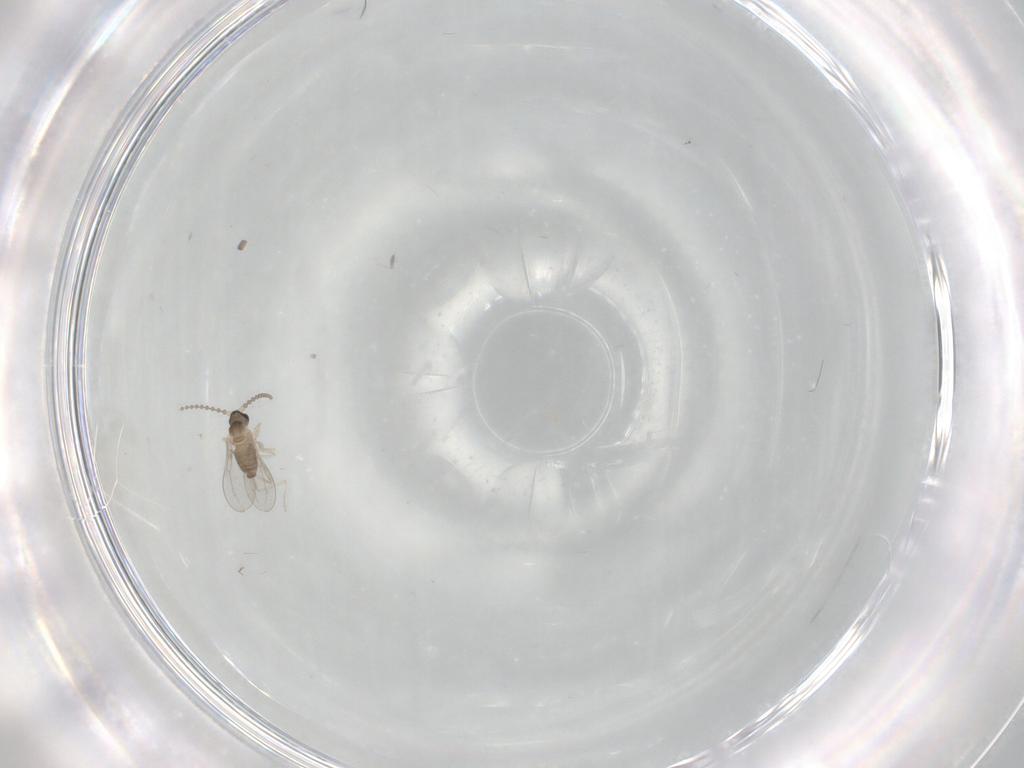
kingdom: Animalia
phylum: Arthropoda
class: Insecta
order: Diptera
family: Cecidomyiidae
